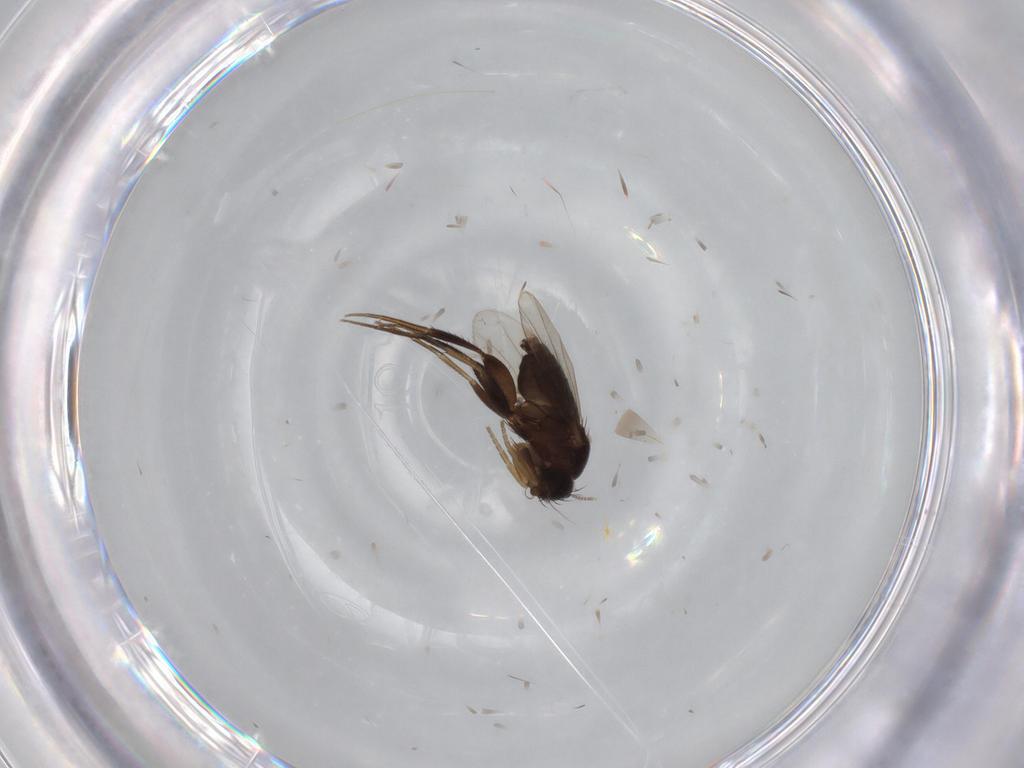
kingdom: Animalia
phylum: Arthropoda
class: Insecta
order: Diptera
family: Phoridae
